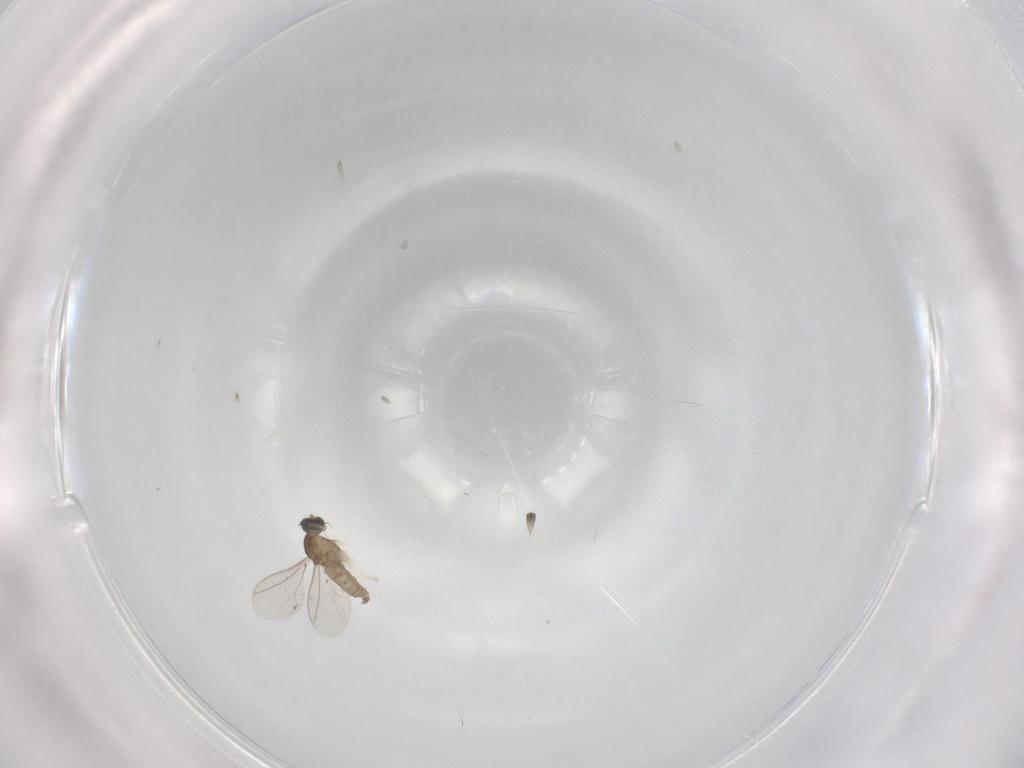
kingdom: Animalia
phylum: Arthropoda
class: Insecta
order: Diptera
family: Cecidomyiidae
